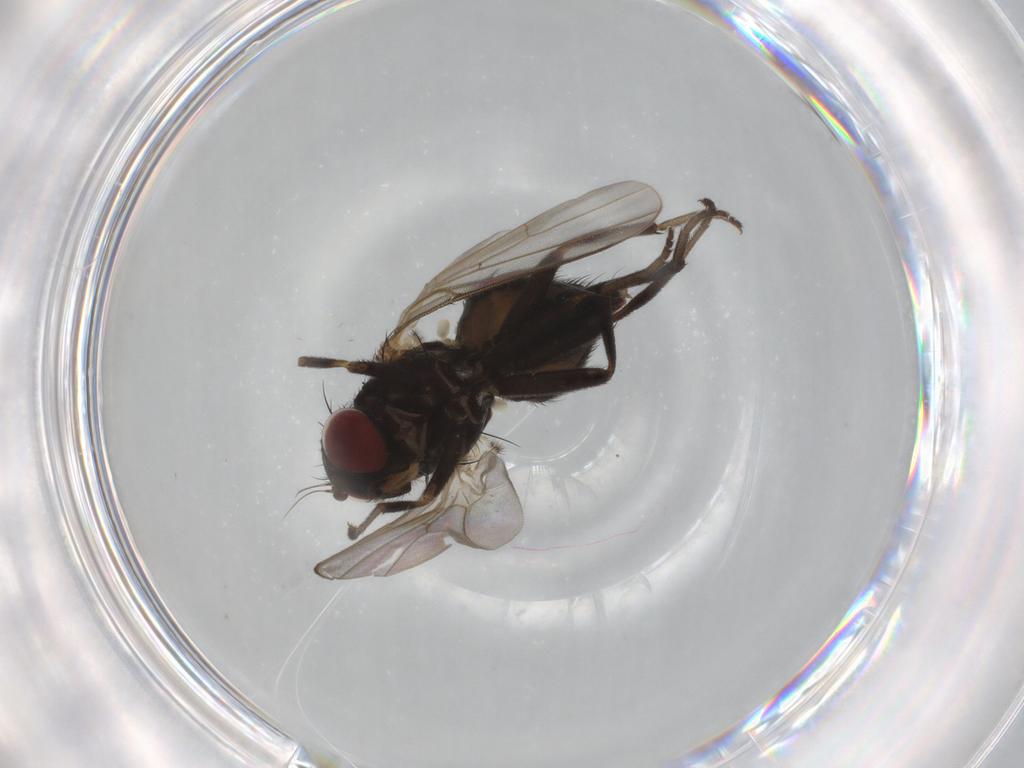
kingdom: Animalia
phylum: Arthropoda
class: Insecta
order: Diptera
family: Agromyzidae
